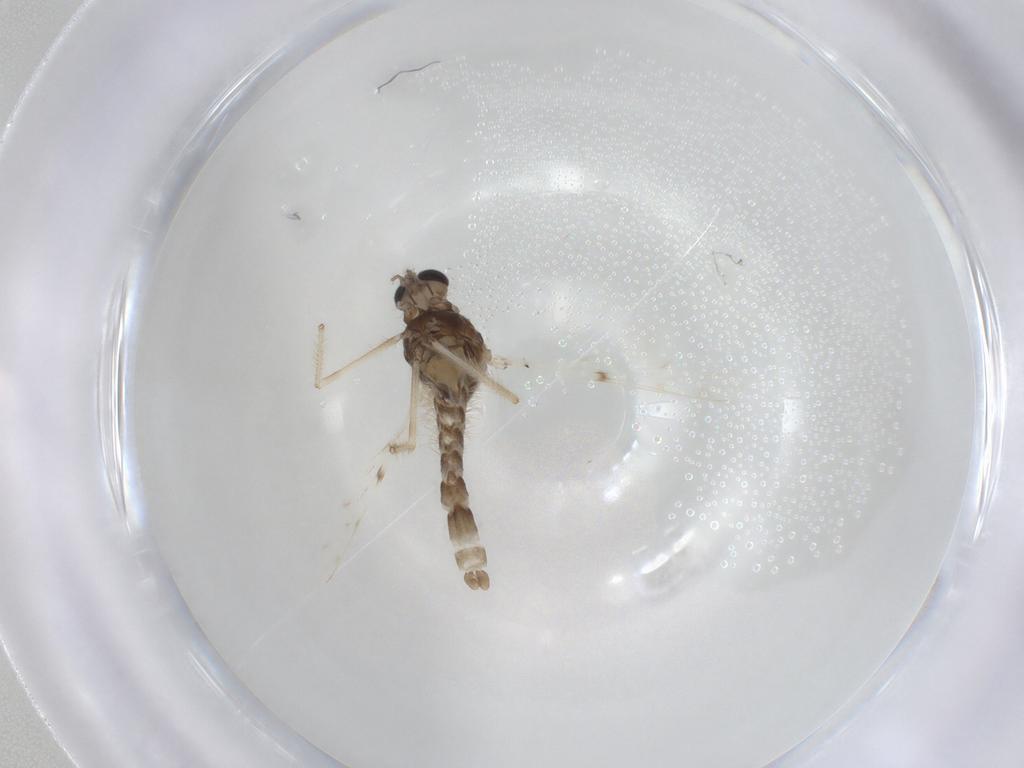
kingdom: Animalia
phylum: Arthropoda
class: Insecta
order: Diptera
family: Chironomidae
